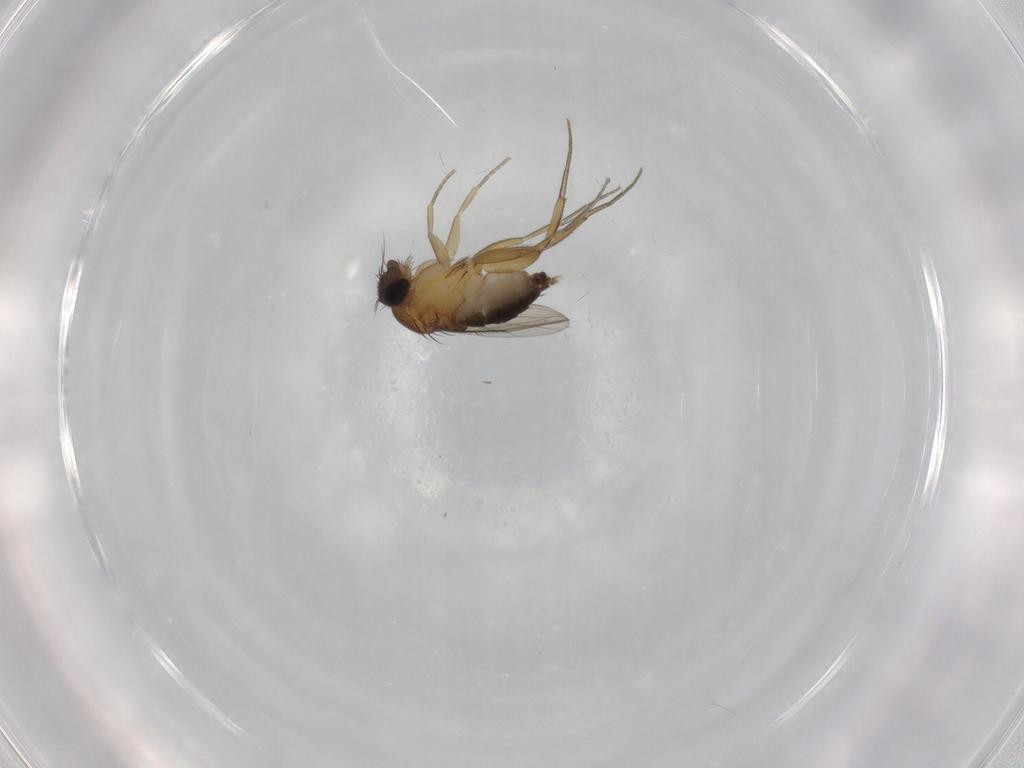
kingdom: Animalia
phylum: Arthropoda
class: Insecta
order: Diptera
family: Phoridae
